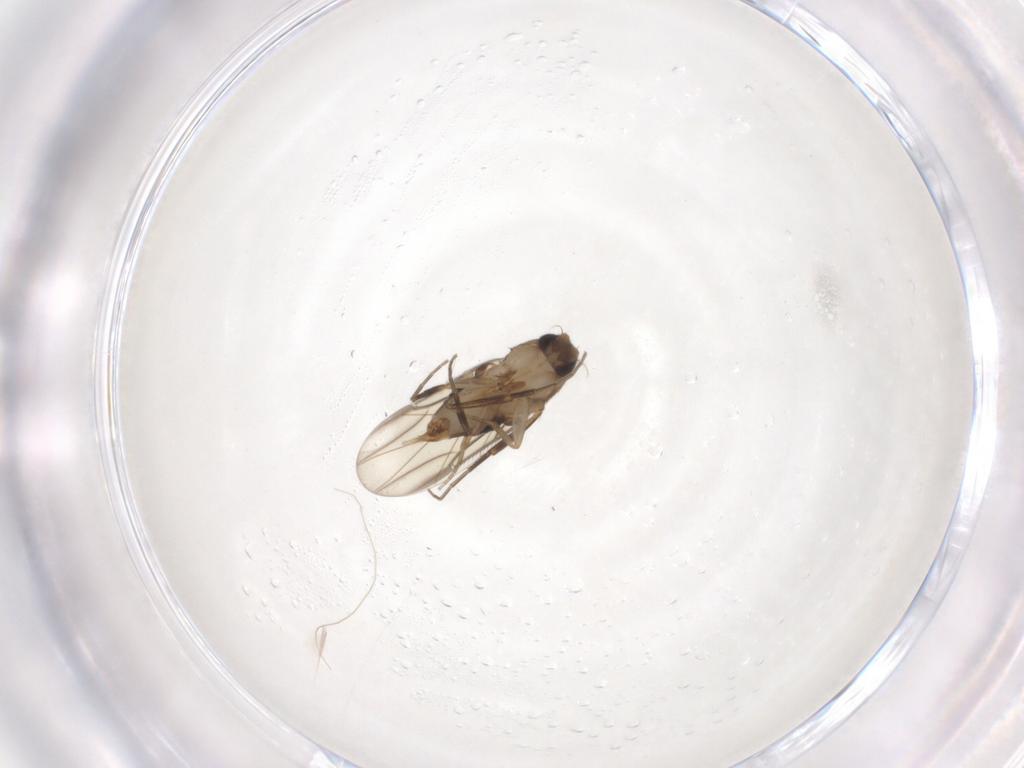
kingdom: Animalia
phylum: Arthropoda
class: Insecta
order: Diptera
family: Phoridae
